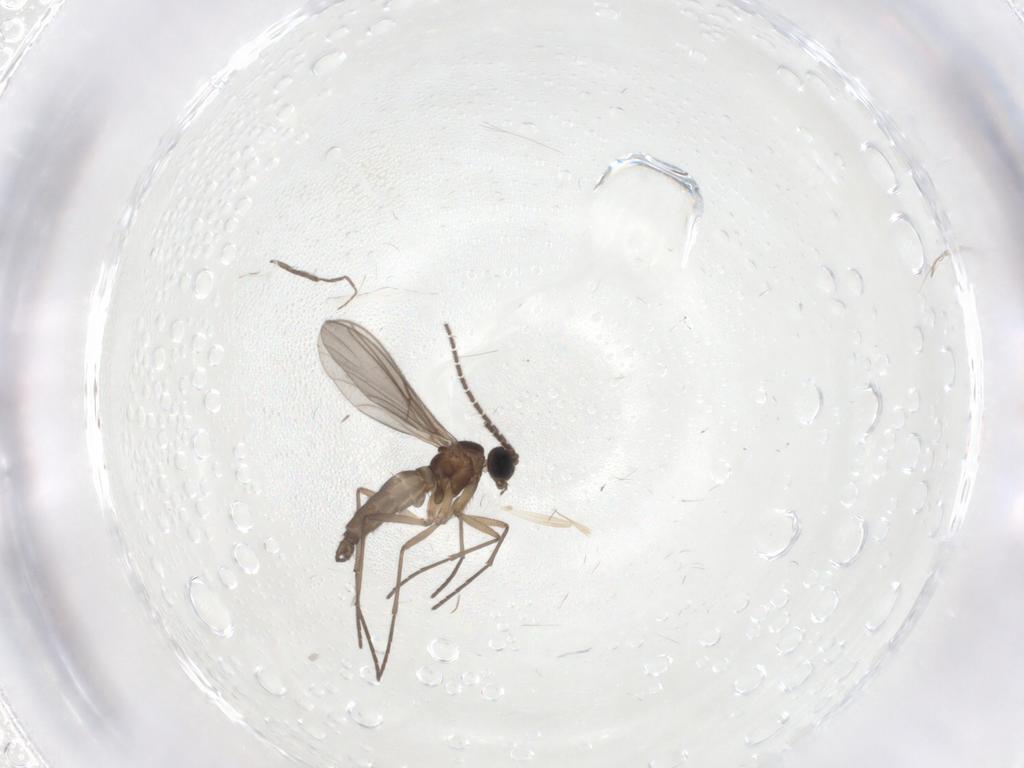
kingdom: Animalia
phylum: Arthropoda
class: Insecta
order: Diptera
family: Sciaridae
